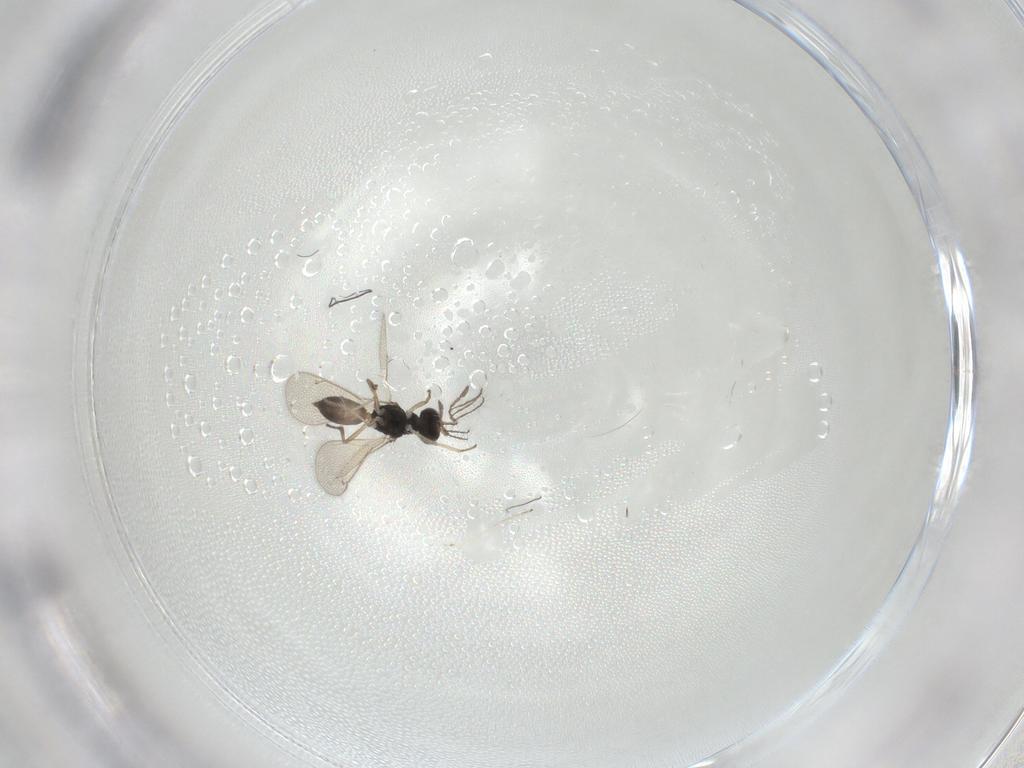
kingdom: Animalia
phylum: Arthropoda
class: Insecta
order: Hymenoptera
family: Eulophidae
